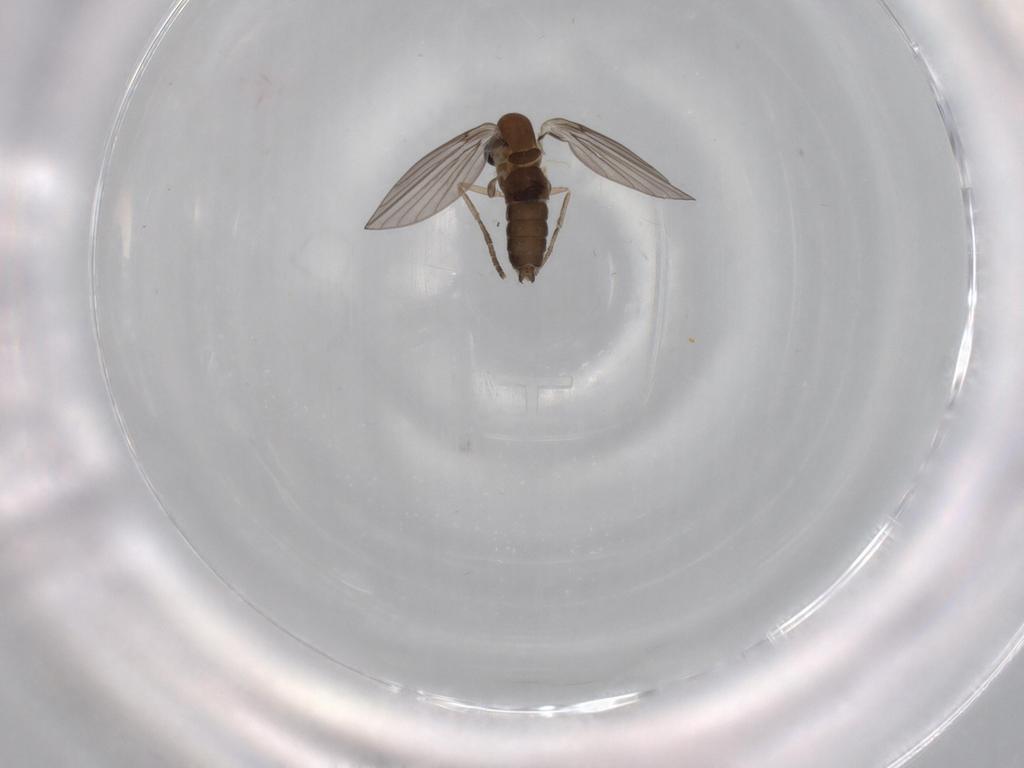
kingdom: Animalia
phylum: Arthropoda
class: Insecta
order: Diptera
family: Psychodidae
